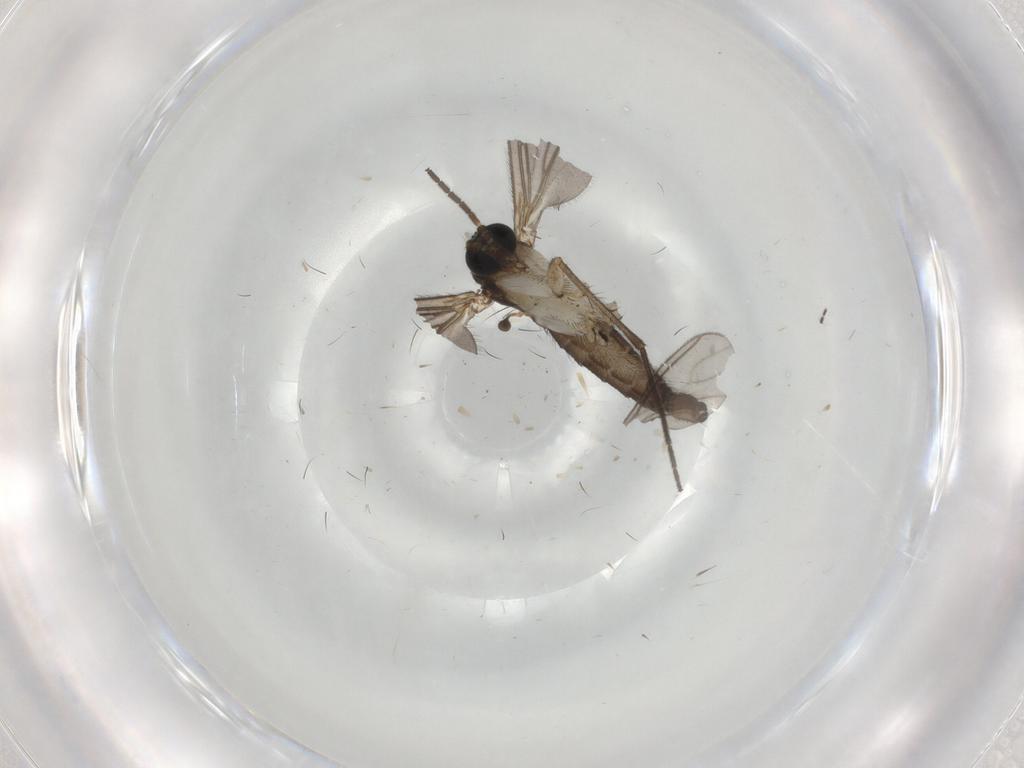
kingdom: Animalia
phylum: Arthropoda
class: Insecta
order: Diptera
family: Sciaridae
